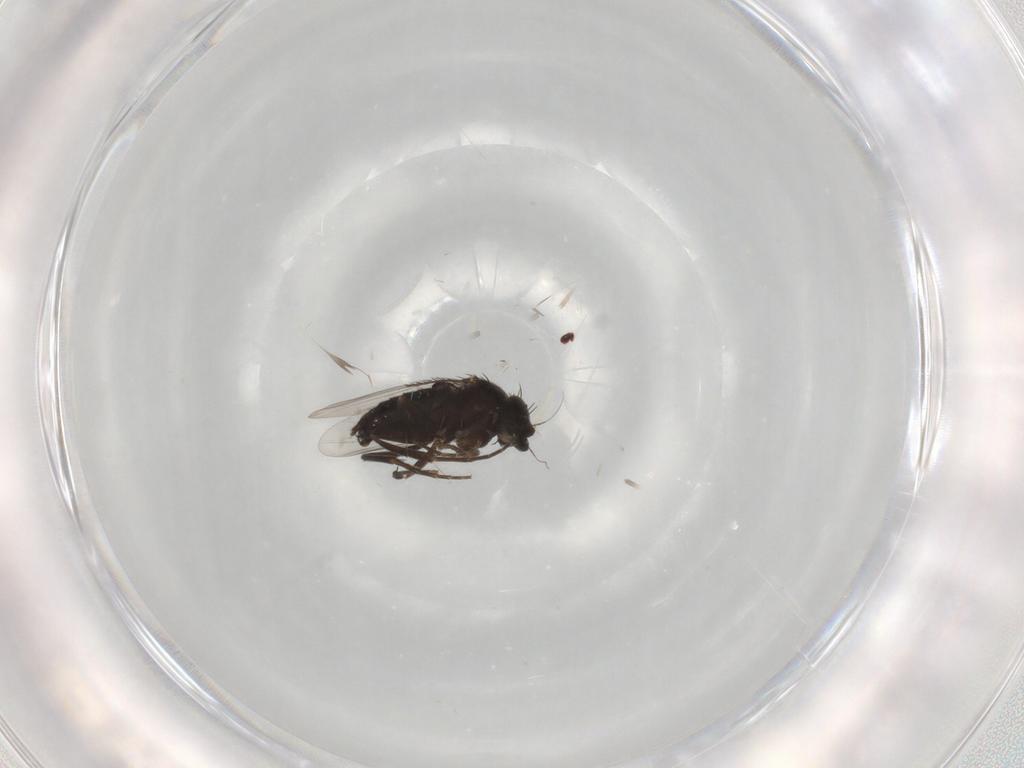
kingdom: Animalia
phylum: Arthropoda
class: Insecta
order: Diptera
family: Phoridae
